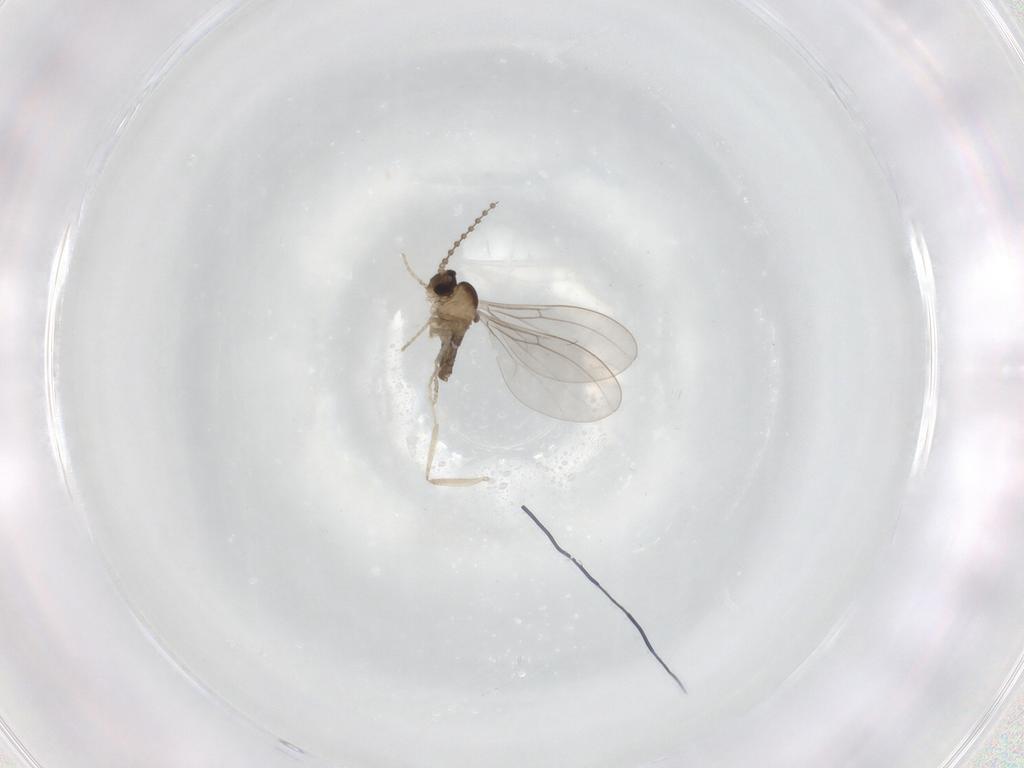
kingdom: Animalia
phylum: Arthropoda
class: Insecta
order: Diptera
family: Cecidomyiidae
